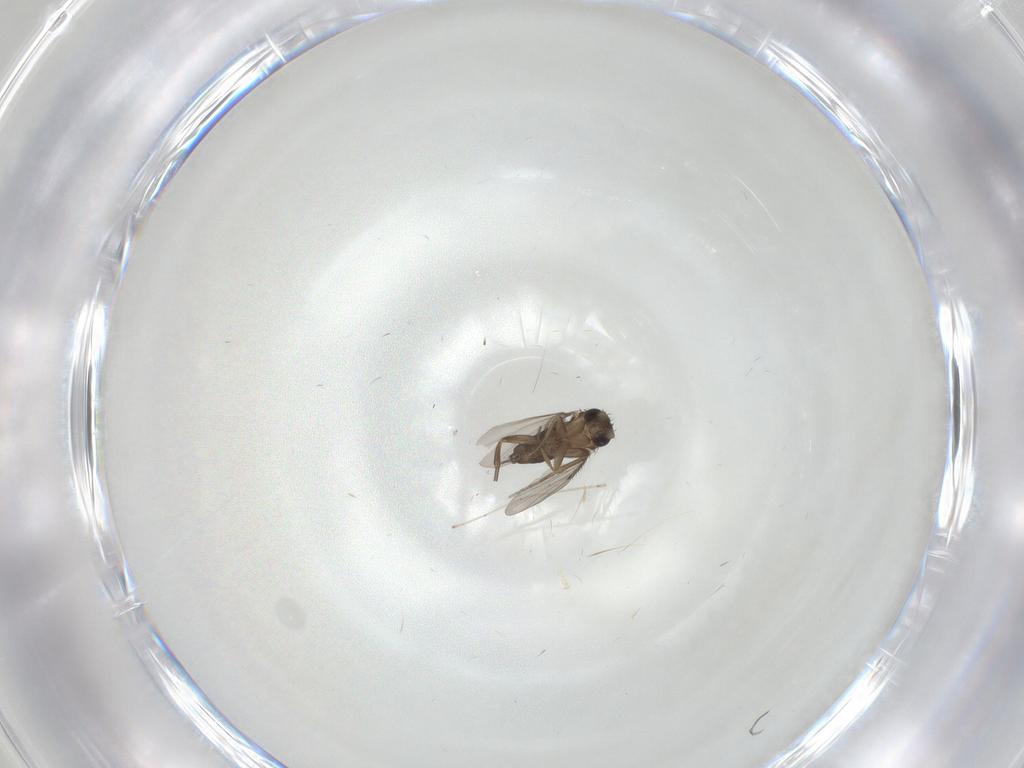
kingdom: Animalia
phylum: Arthropoda
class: Insecta
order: Diptera
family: Phoridae
